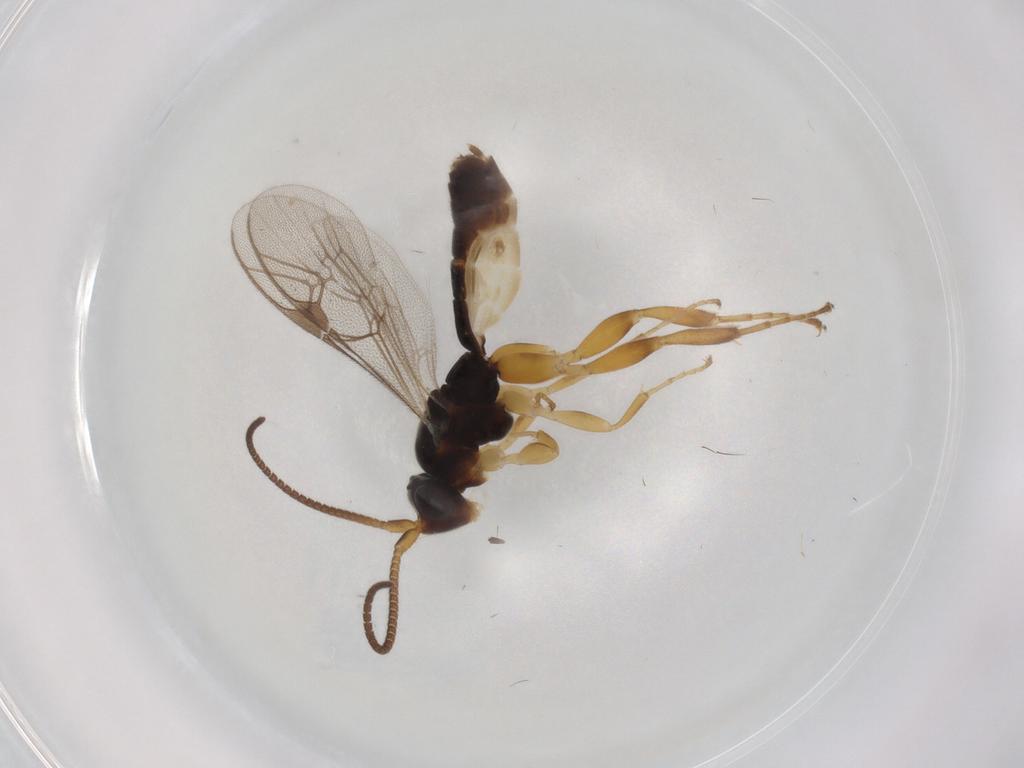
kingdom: Animalia
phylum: Arthropoda
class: Insecta
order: Hymenoptera
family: Ichneumonidae
